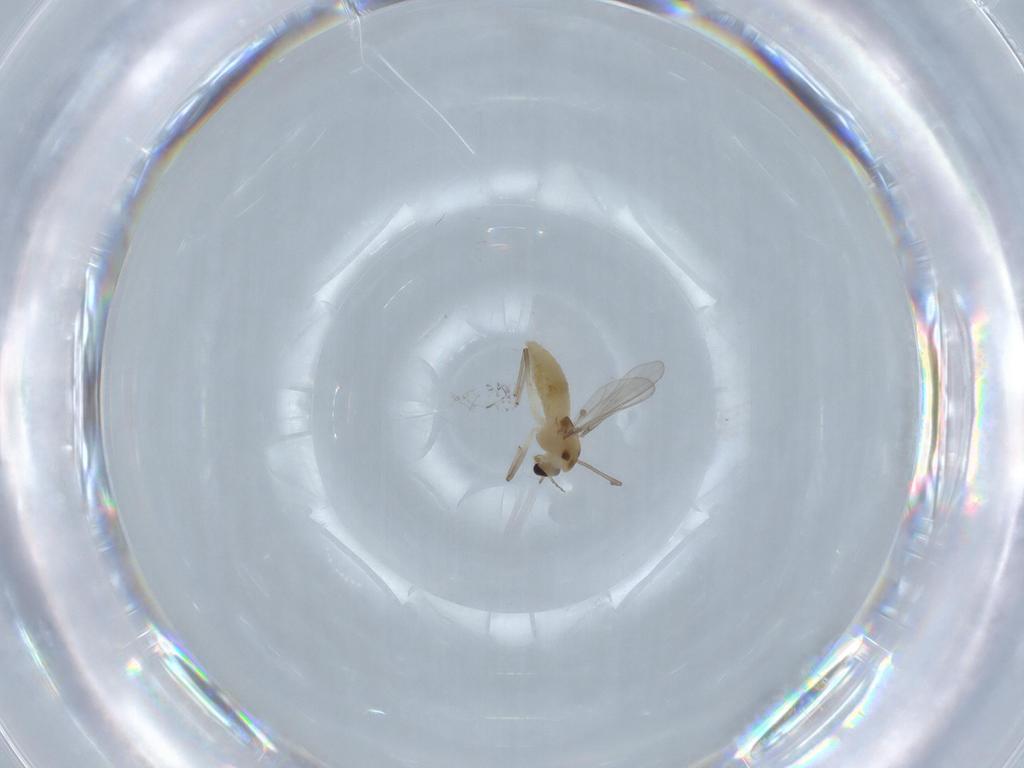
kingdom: Animalia
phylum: Arthropoda
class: Insecta
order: Diptera
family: Chironomidae
